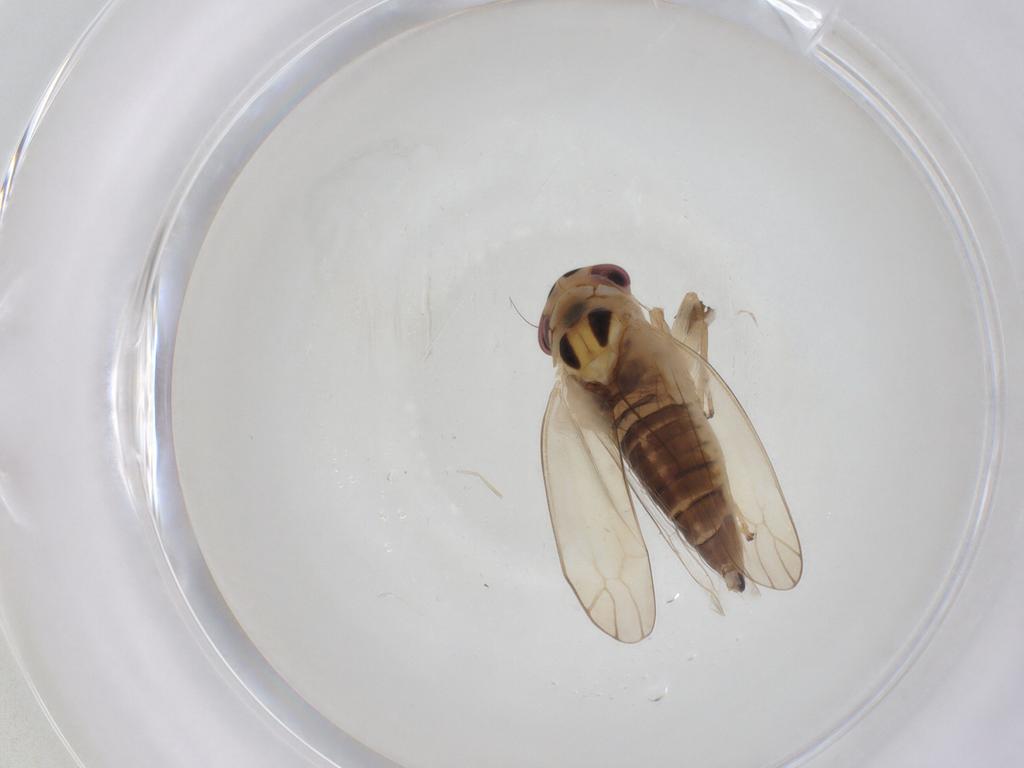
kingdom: Animalia
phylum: Arthropoda
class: Insecta
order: Hemiptera
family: Cicadellidae
